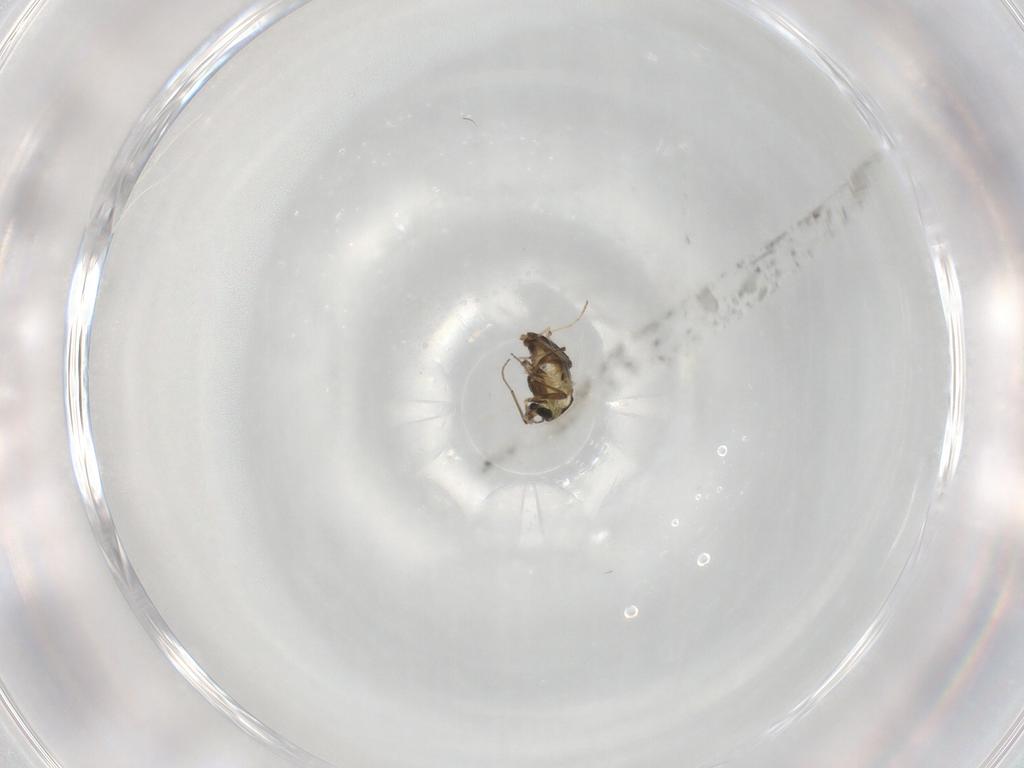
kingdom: Animalia
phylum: Arthropoda
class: Insecta
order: Diptera
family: Chironomidae
